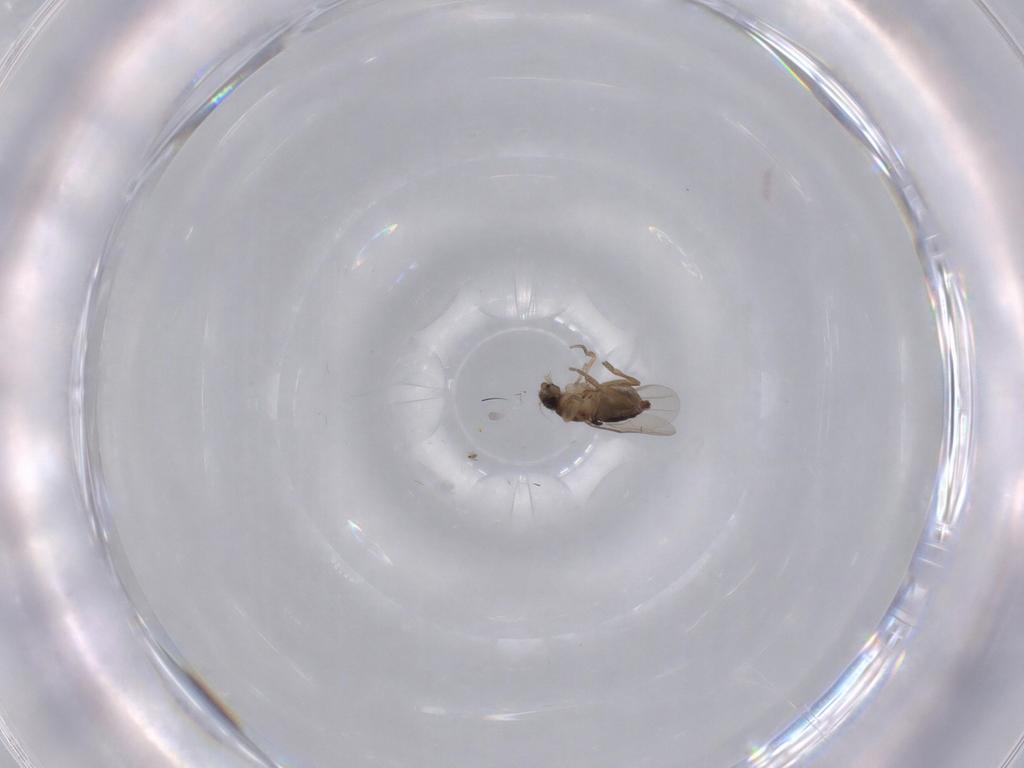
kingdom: Animalia
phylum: Arthropoda
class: Insecta
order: Diptera
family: Phoridae
